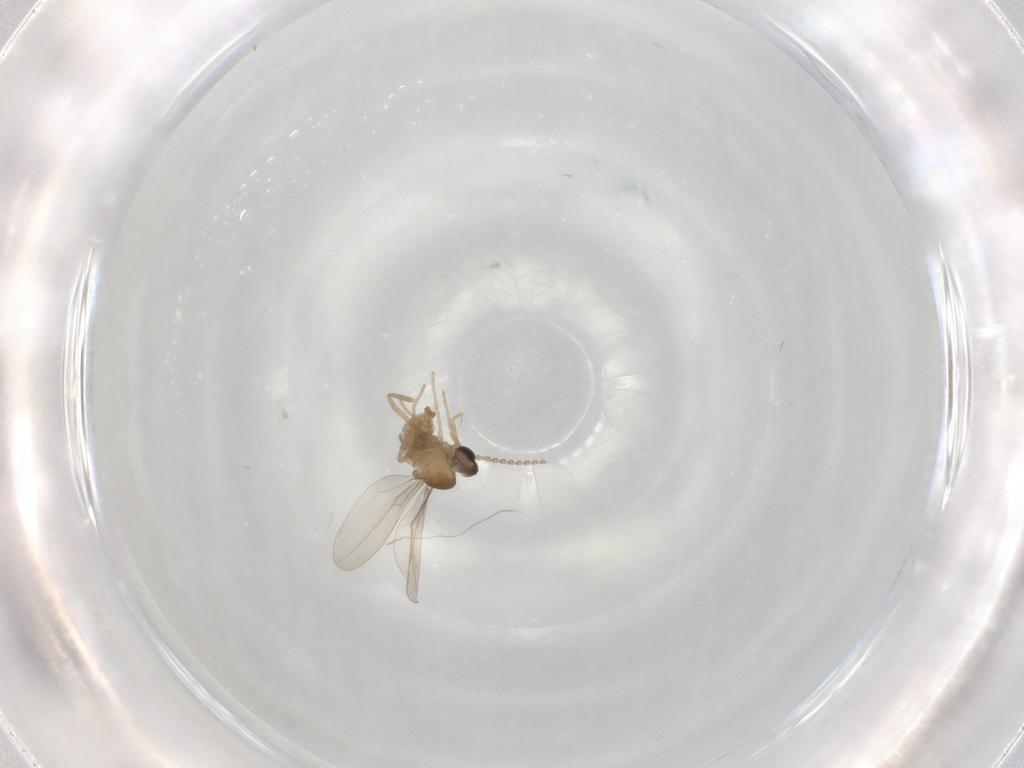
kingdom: Animalia
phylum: Arthropoda
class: Insecta
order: Diptera
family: Cecidomyiidae
